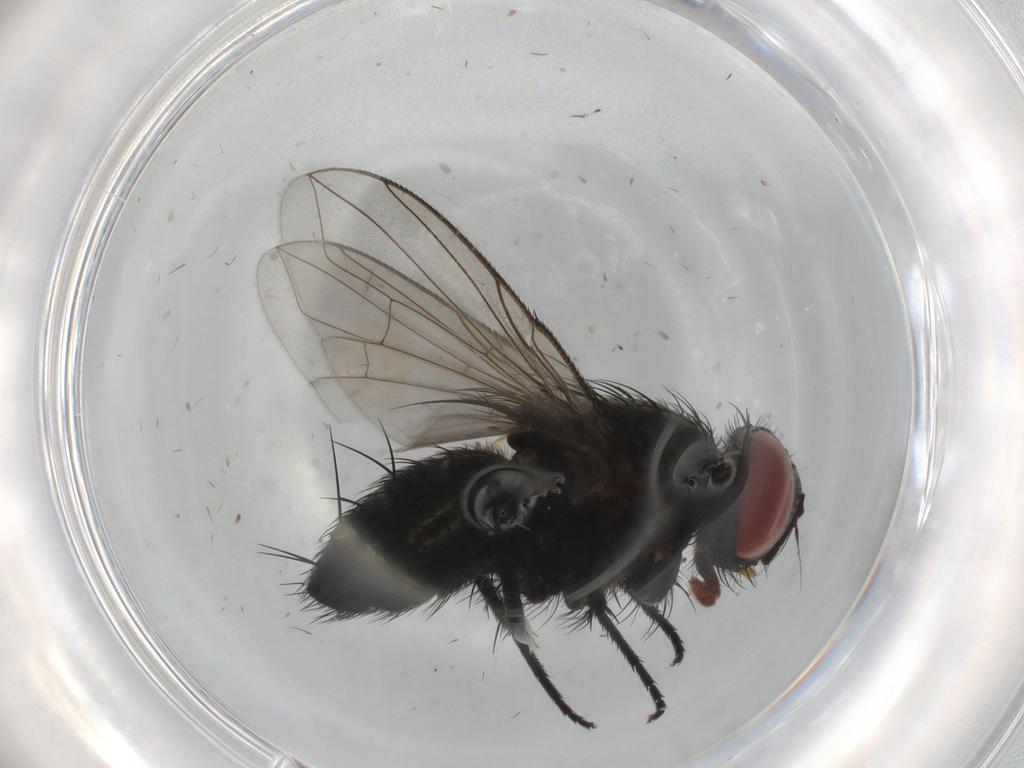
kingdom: Animalia
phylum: Arthropoda
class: Insecta
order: Diptera
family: Tachinidae
